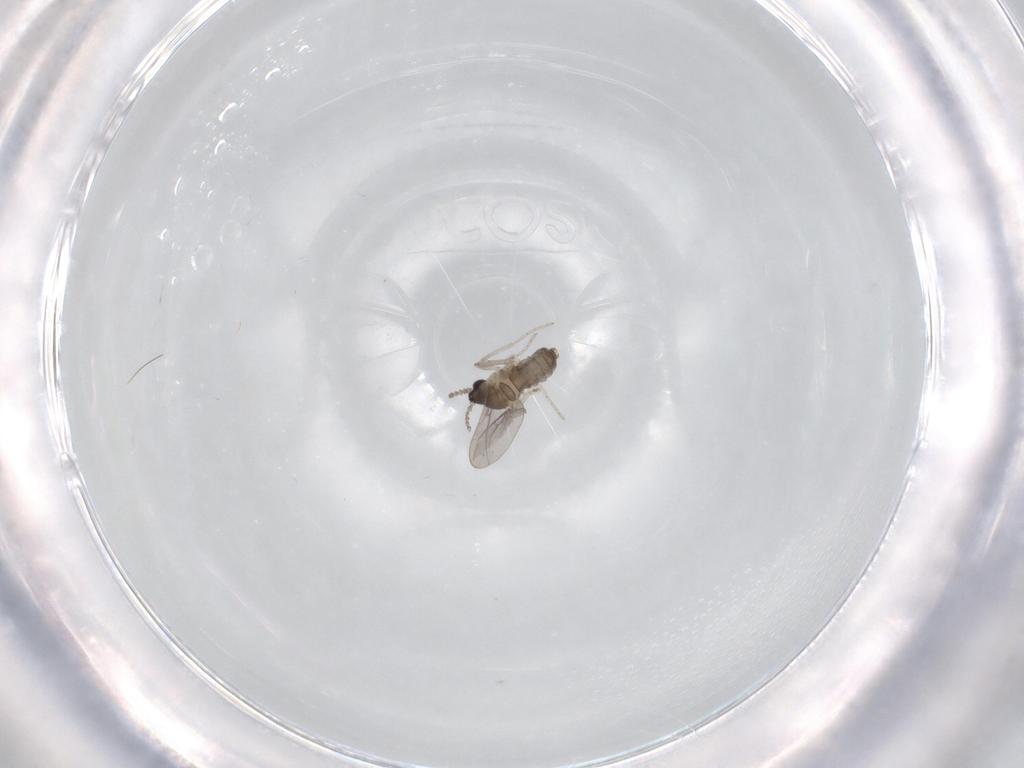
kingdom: Animalia
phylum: Arthropoda
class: Insecta
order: Diptera
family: Cecidomyiidae
